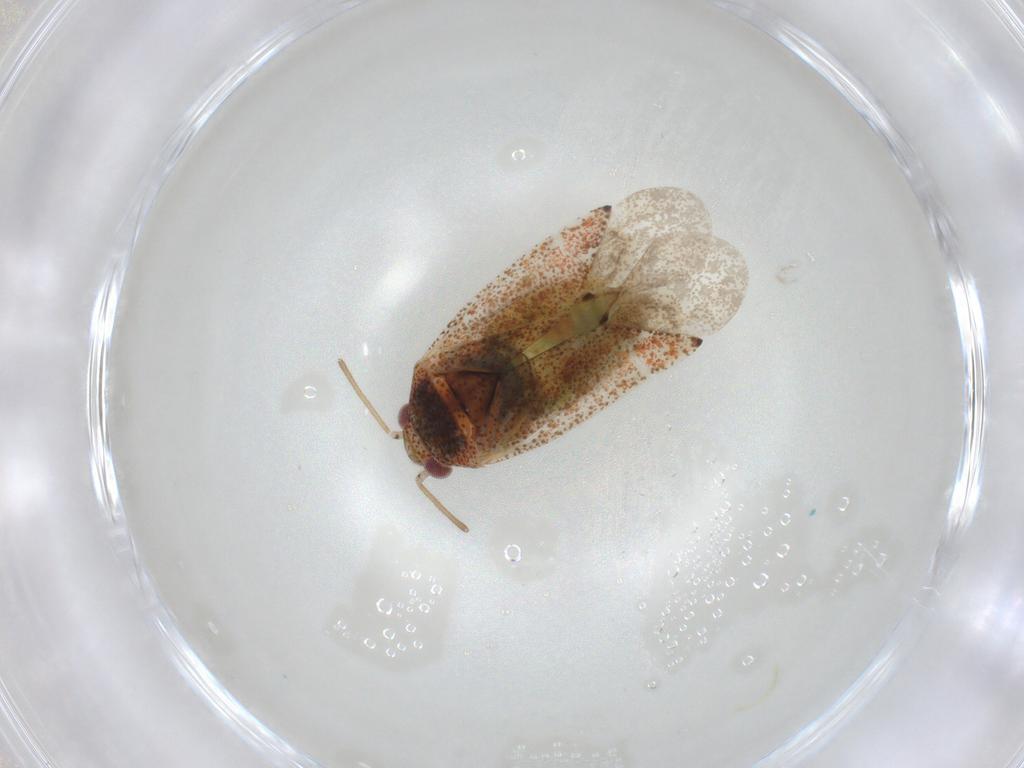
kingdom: Animalia
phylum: Arthropoda
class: Insecta
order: Hemiptera
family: Miridae
